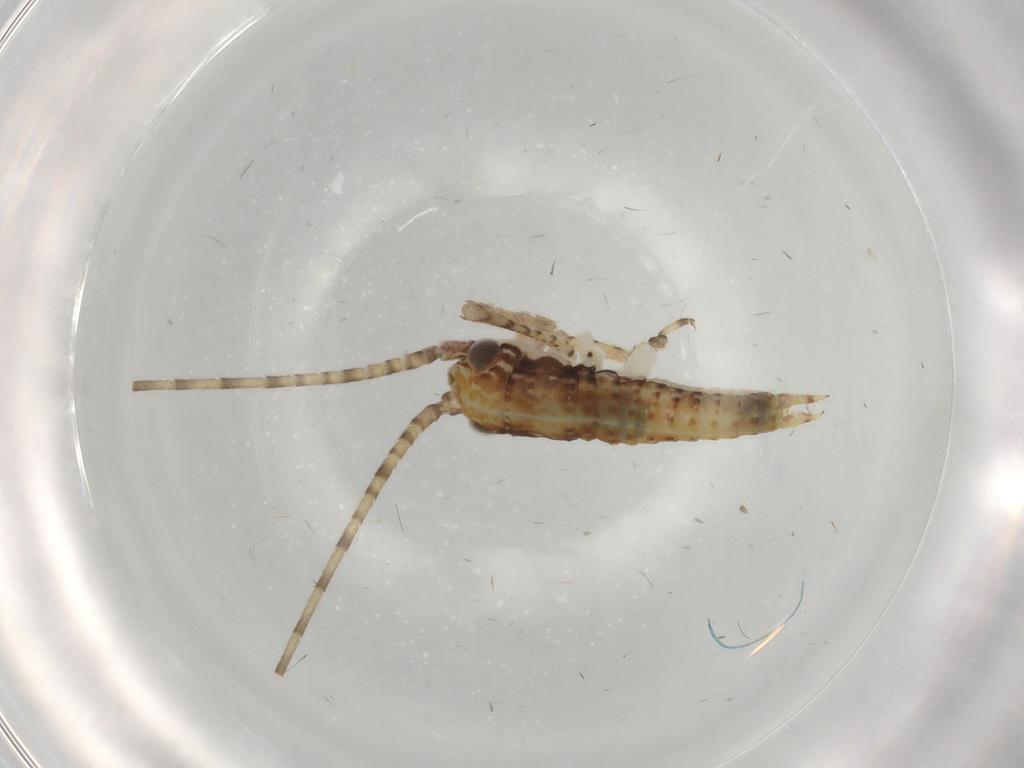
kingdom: Animalia
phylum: Arthropoda
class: Insecta
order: Orthoptera
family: Gryllidae
